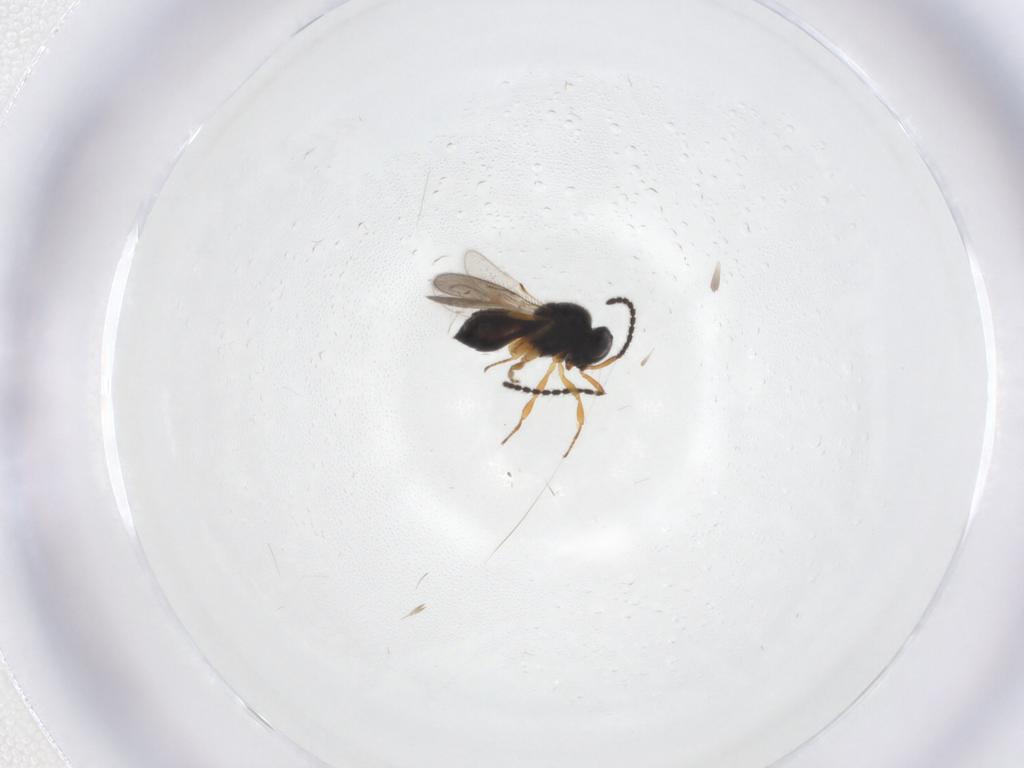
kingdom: Animalia
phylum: Arthropoda
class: Insecta
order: Hymenoptera
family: Scelionidae
